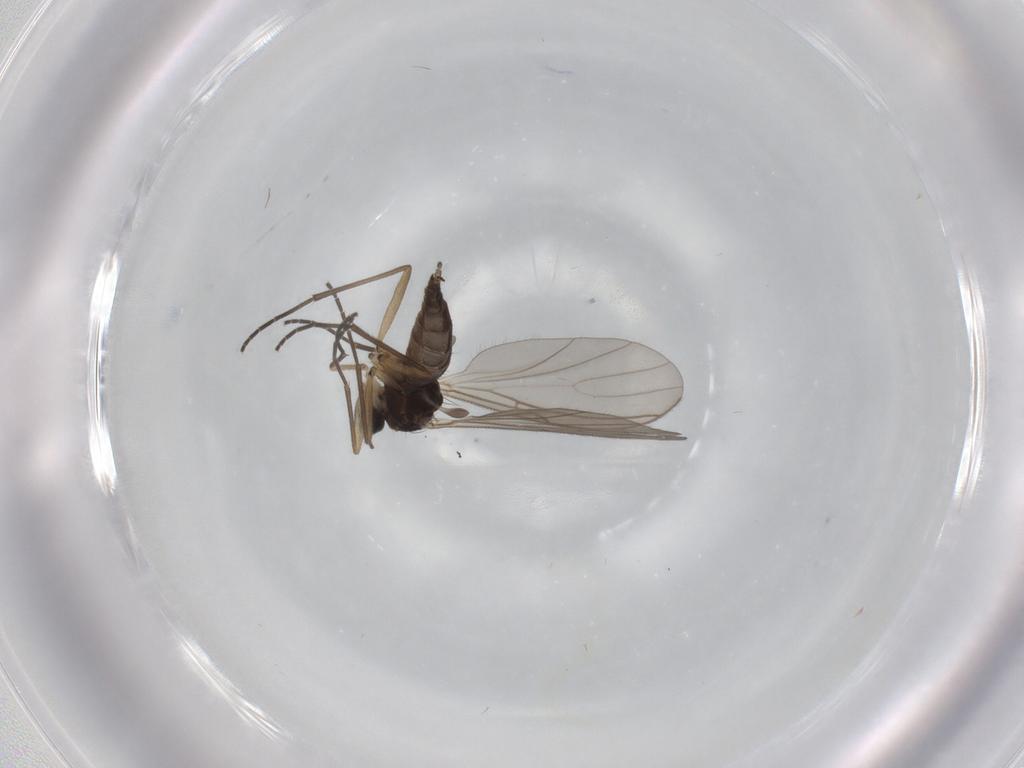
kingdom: Animalia
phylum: Arthropoda
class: Insecta
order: Diptera
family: Sciaridae
